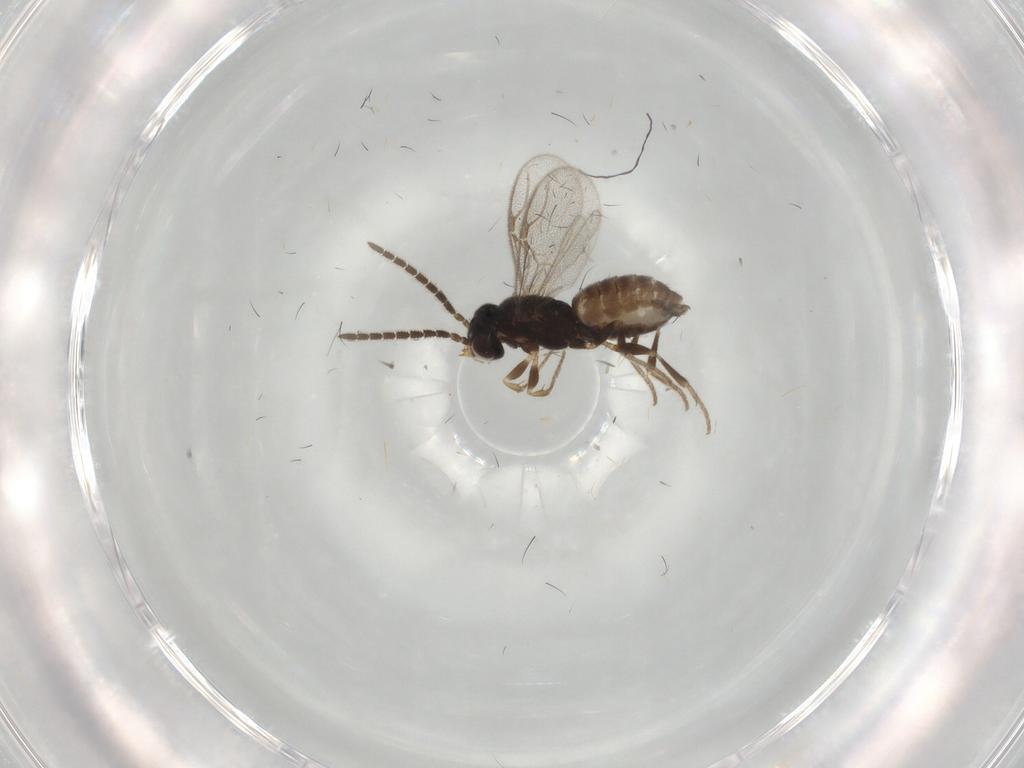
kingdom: Animalia
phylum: Arthropoda
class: Insecta
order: Hymenoptera
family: Dryinidae
